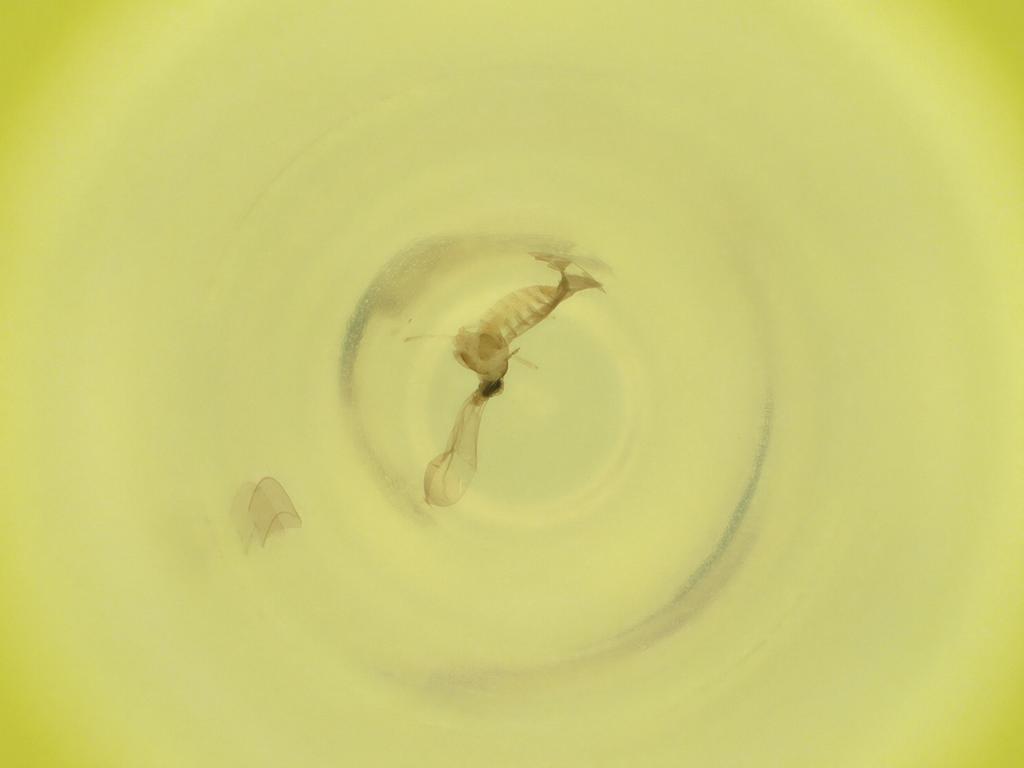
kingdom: Animalia
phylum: Arthropoda
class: Insecta
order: Diptera
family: Cecidomyiidae
